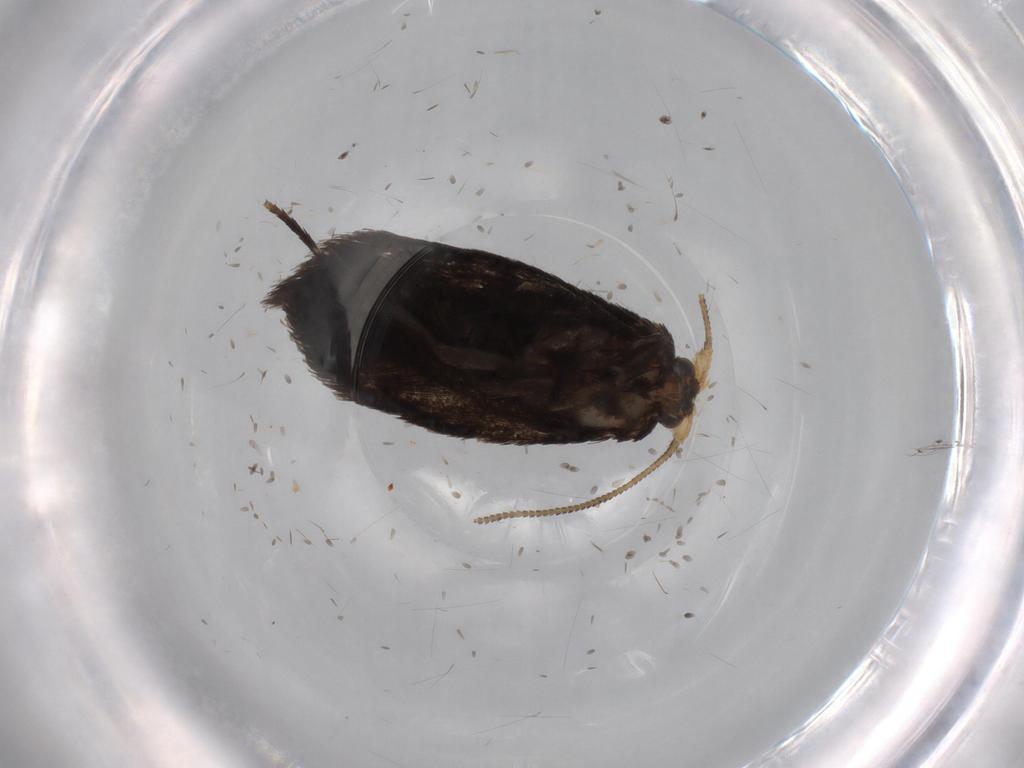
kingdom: Animalia
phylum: Arthropoda
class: Insecta
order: Lepidoptera
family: Nepticulidae
